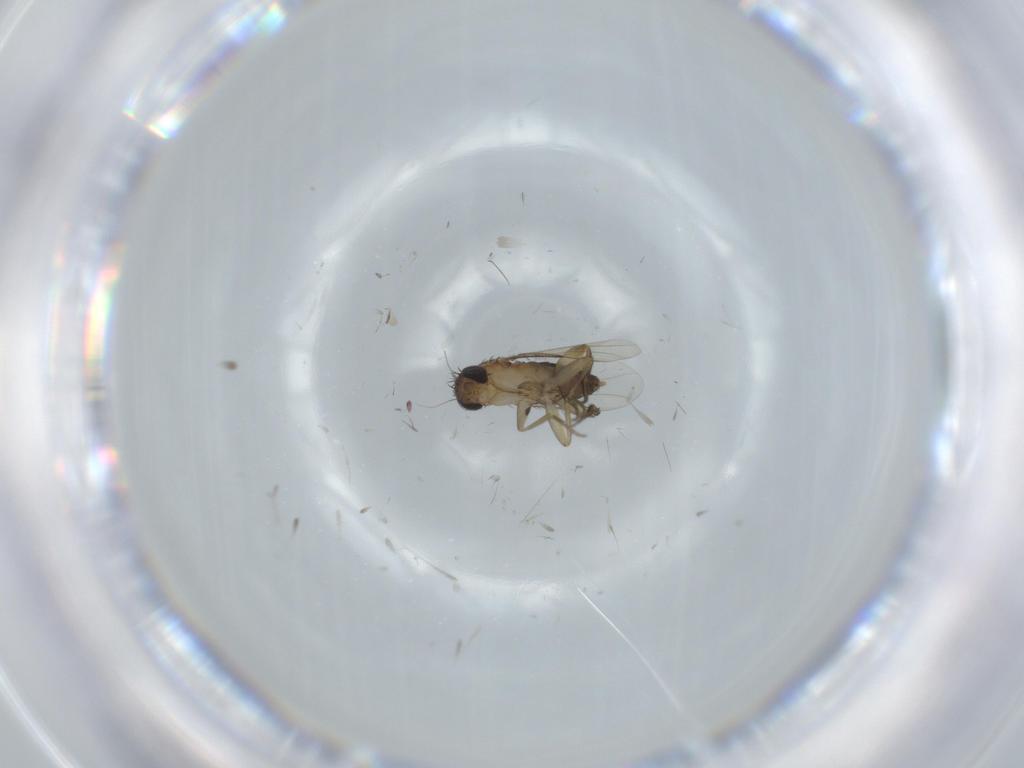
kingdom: Animalia
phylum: Arthropoda
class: Insecta
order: Diptera
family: Phoridae
